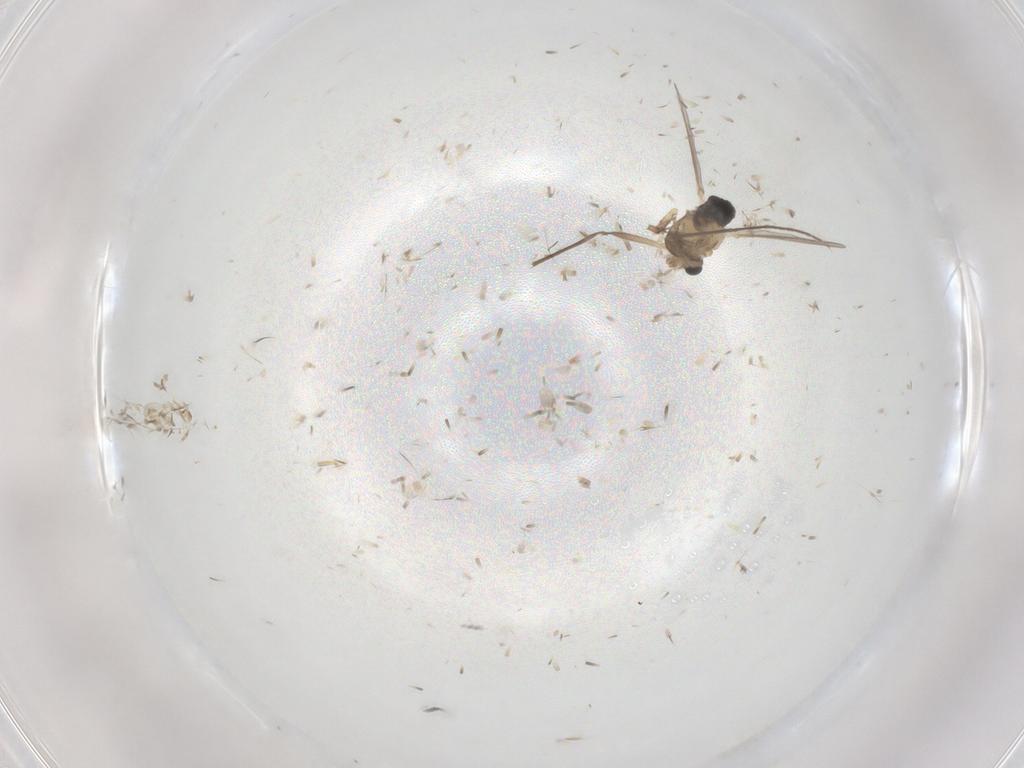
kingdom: Animalia
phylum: Arthropoda
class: Insecta
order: Diptera
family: Chironomidae
